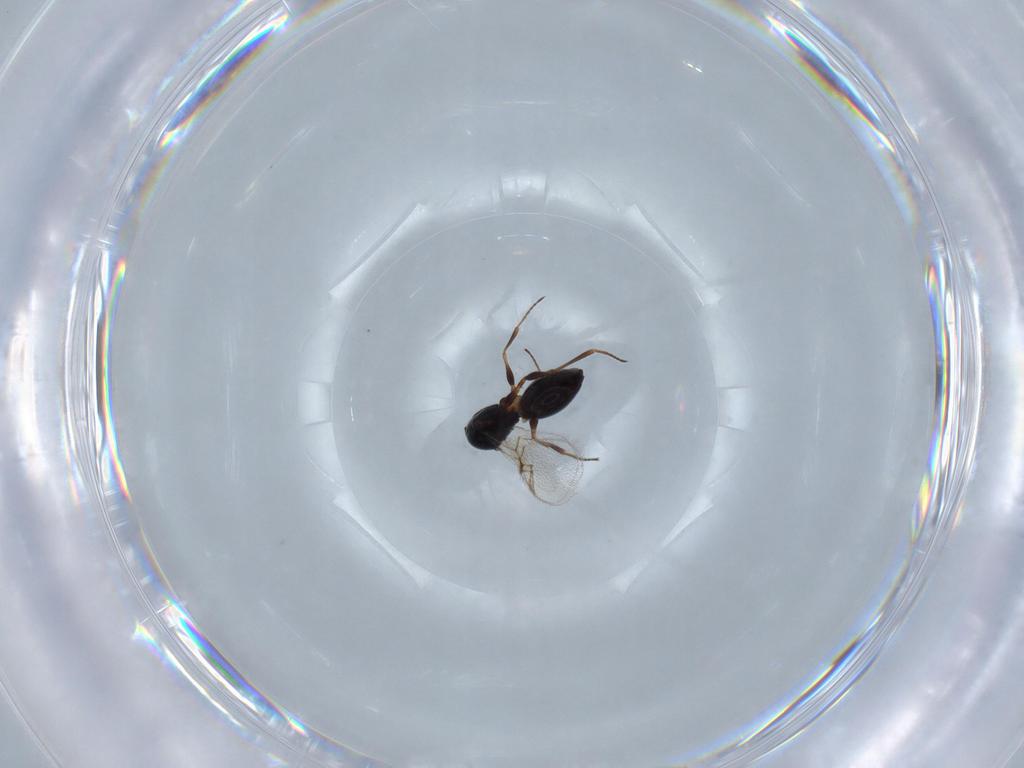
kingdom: Animalia
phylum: Arthropoda
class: Insecta
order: Hymenoptera
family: Figitidae
